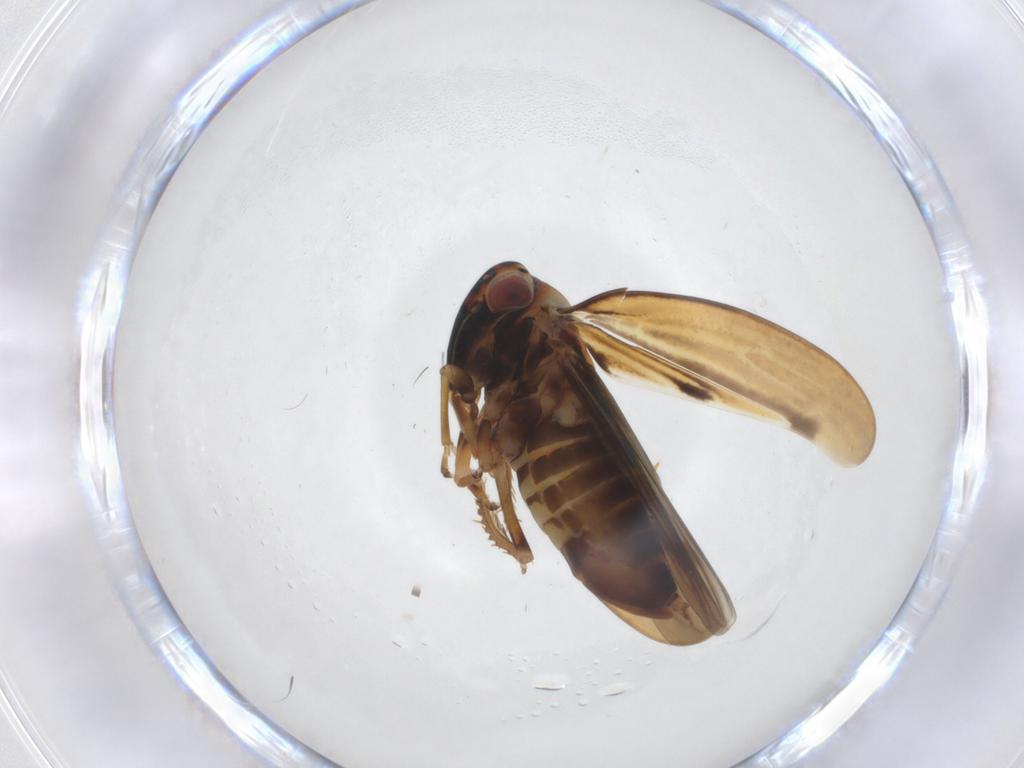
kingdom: Animalia
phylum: Arthropoda
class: Insecta
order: Hemiptera
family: Cicadellidae
